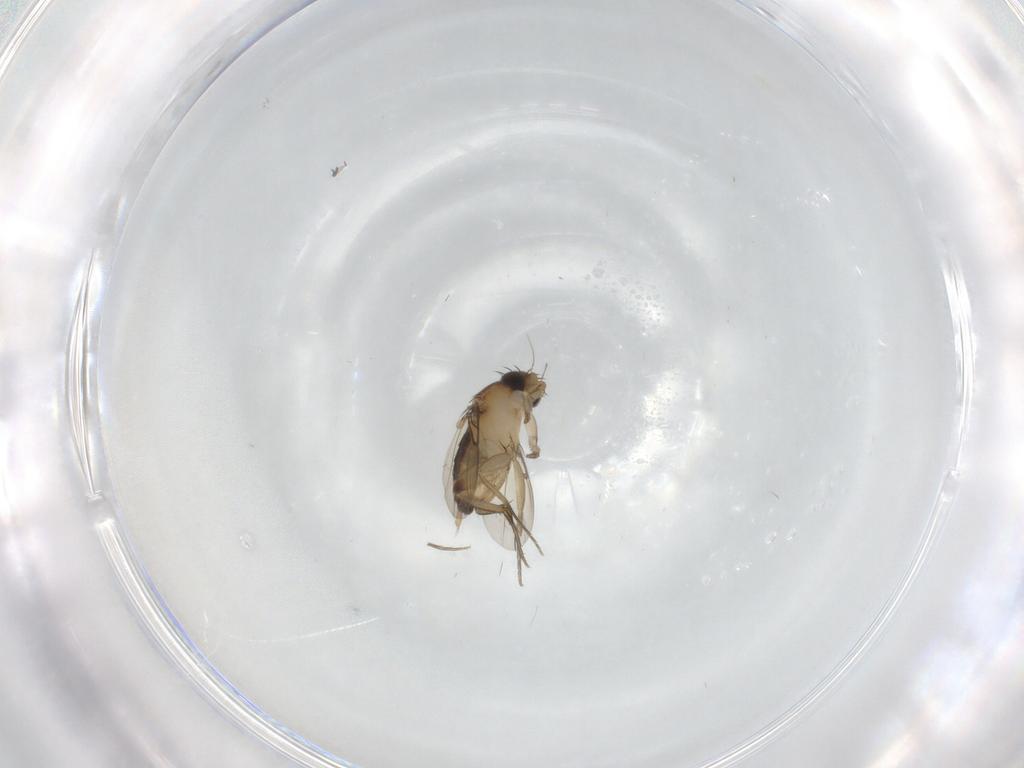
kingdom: Animalia
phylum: Arthropoda
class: Insecta
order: Diptera
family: Phoridae
